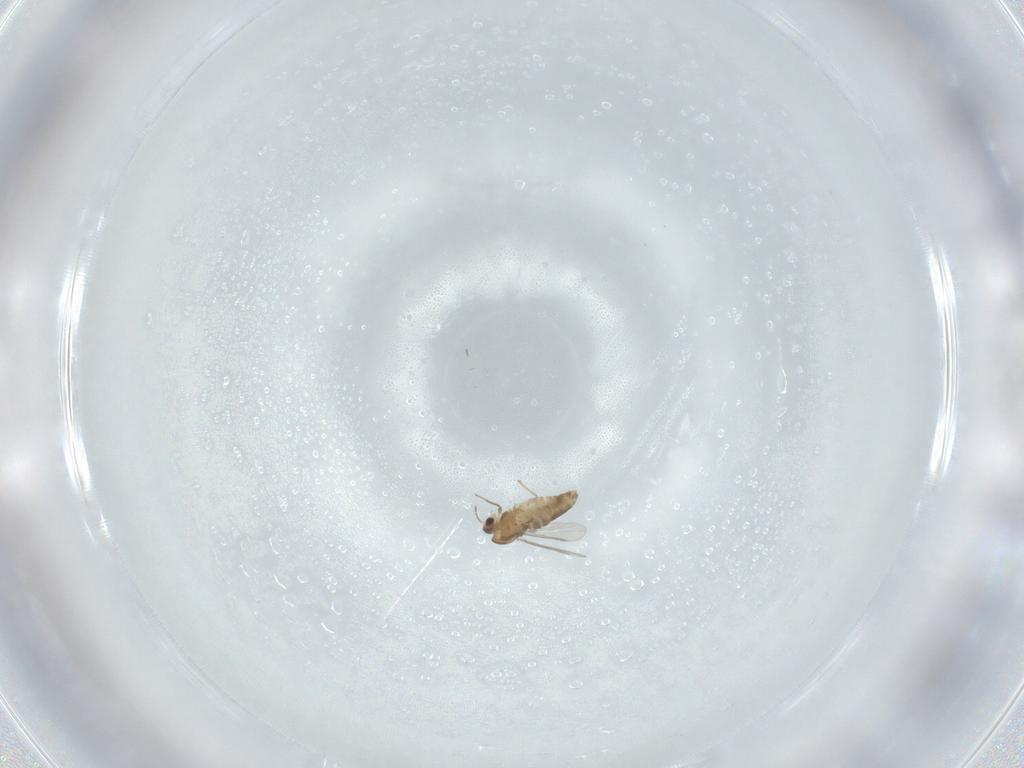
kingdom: Animalia
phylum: Arthropoda
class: Insecta
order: Diptera
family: Chironomidae
